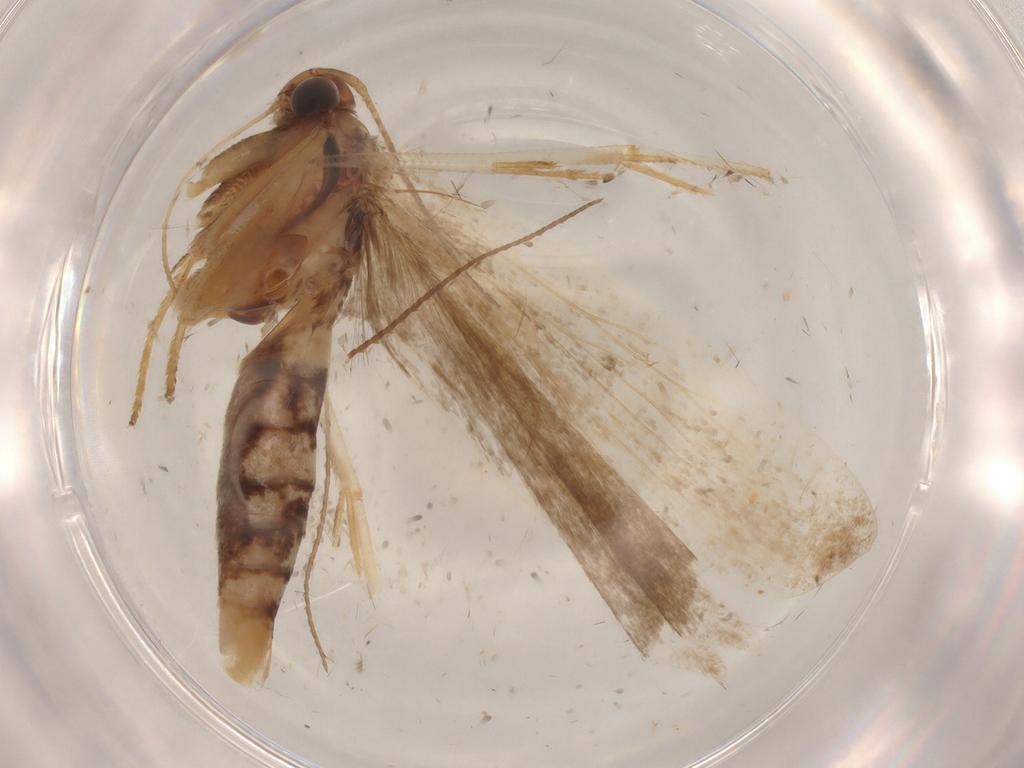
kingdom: Animalia
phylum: Arthropoda
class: Insecta
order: Lepidoptera
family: Gelechiidae
